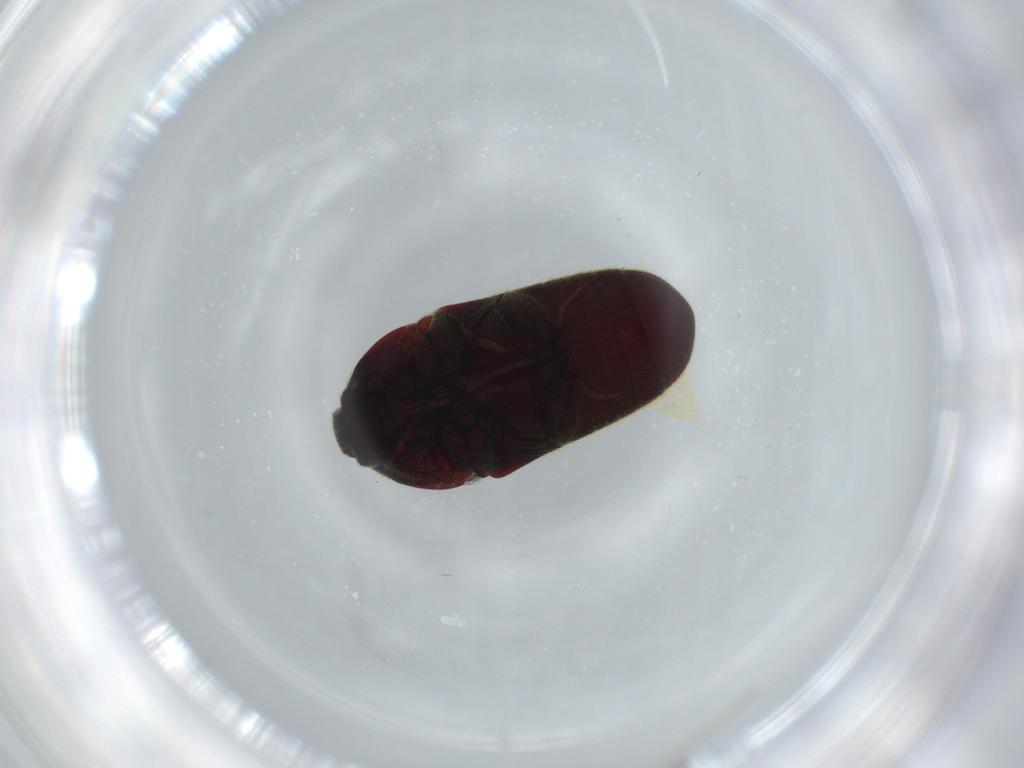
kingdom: Animalia
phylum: Arthropoda
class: Insecta
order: Coleoptera
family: Throscidae
